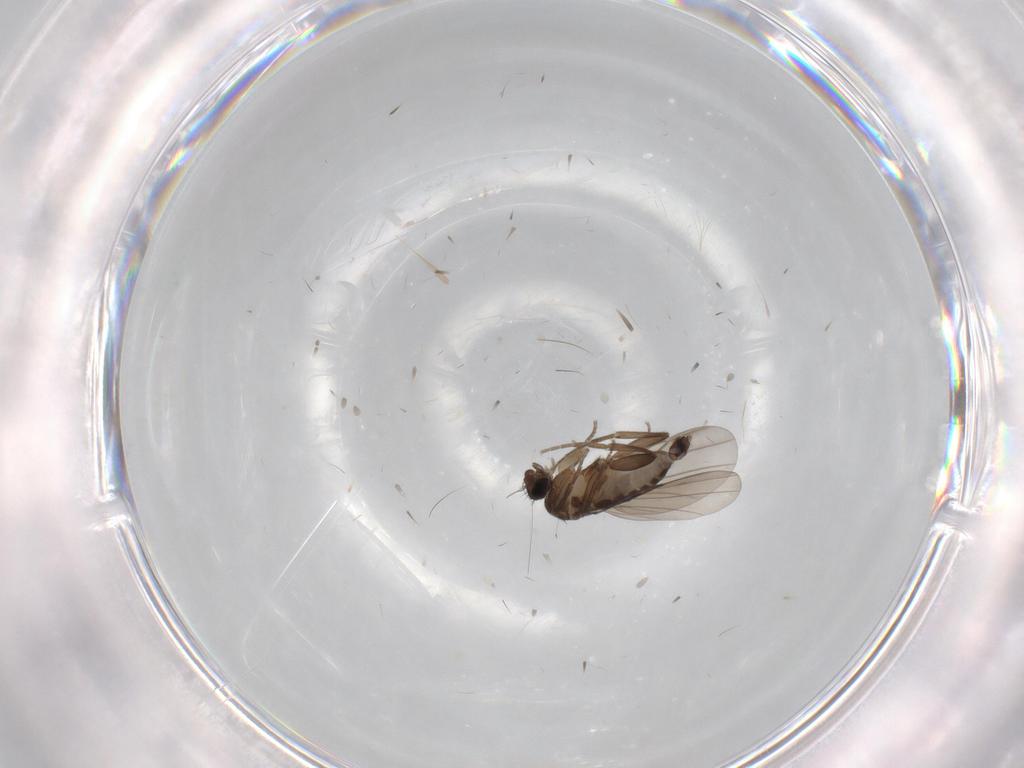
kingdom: Animalia
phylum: Arthropoda
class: Insecta
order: Diptera
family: Phoridae
